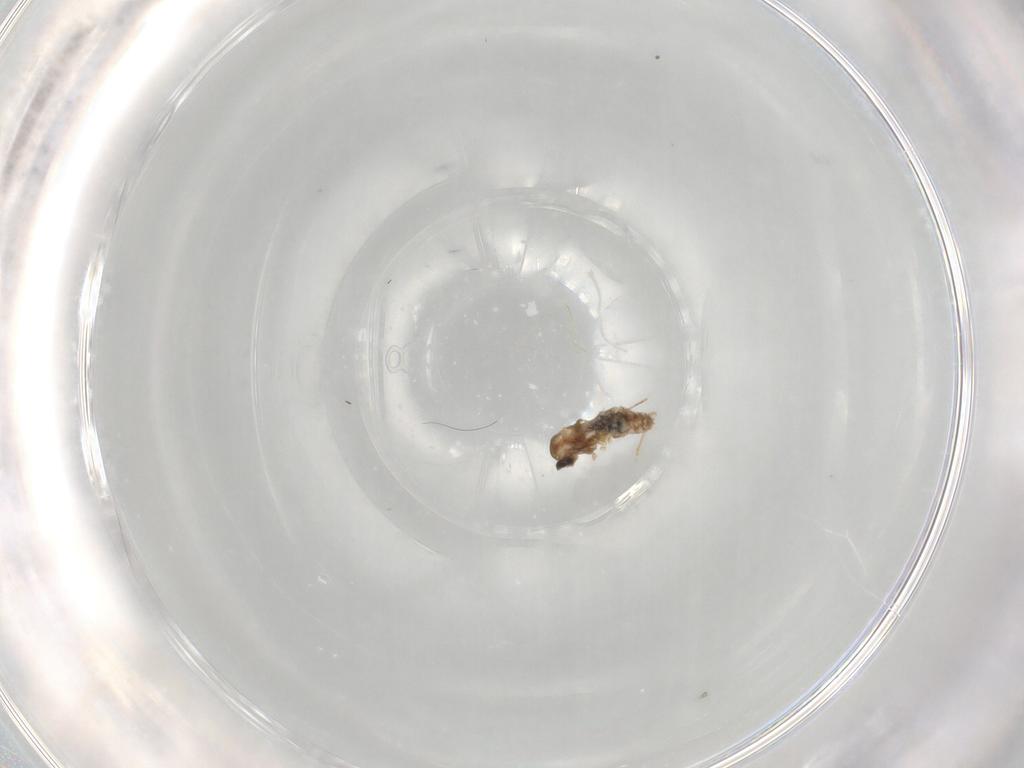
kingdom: Animalia
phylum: Arthropoda
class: Insecta
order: Diptera
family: Cecidomyiidae
